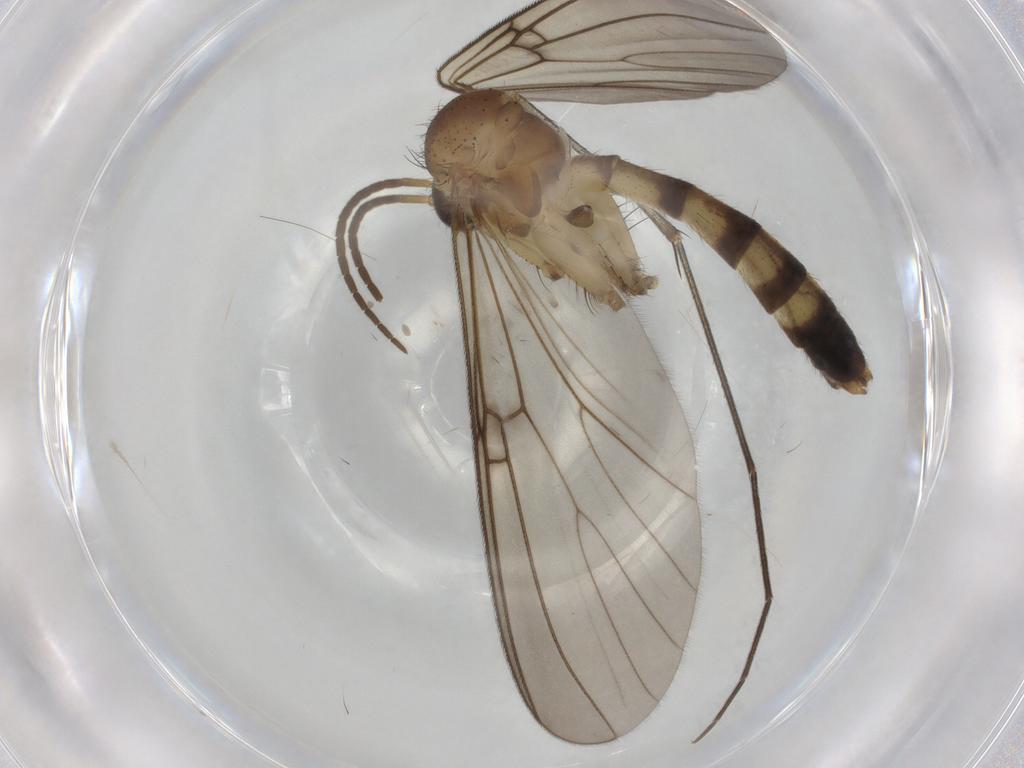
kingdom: Animalia
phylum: Arthropoda
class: Insecta
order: Diptera
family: Mycetophilidae
